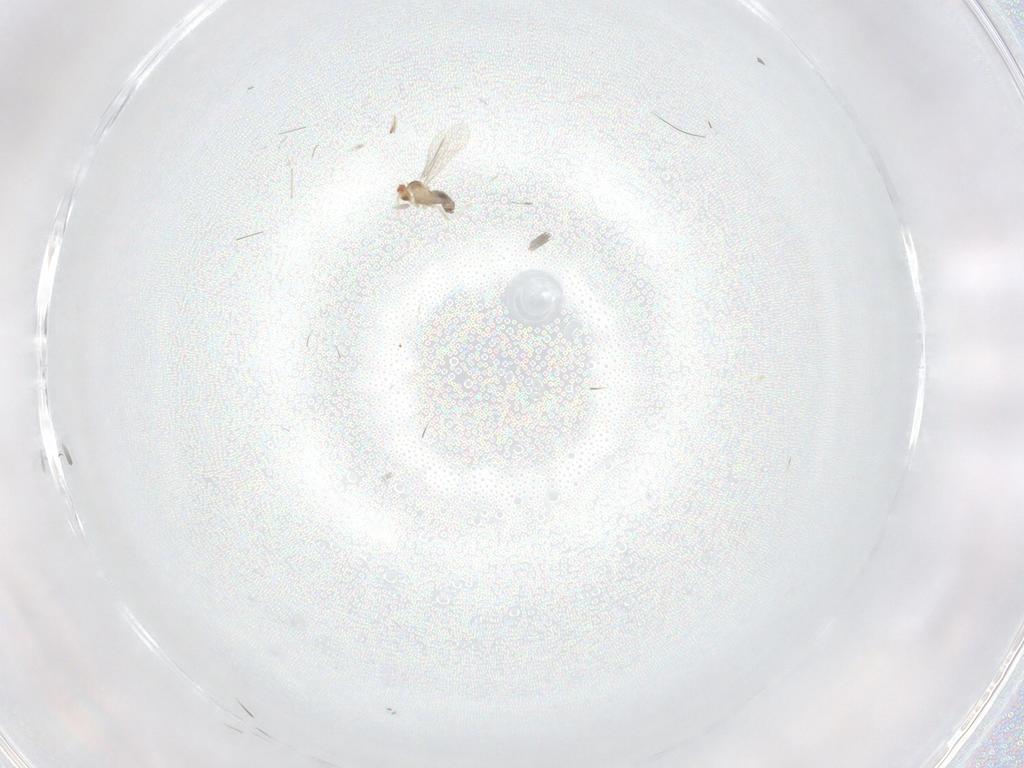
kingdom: Animalia
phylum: Arthropoda
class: Insecta
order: Diptera
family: Cecidomyiidae
